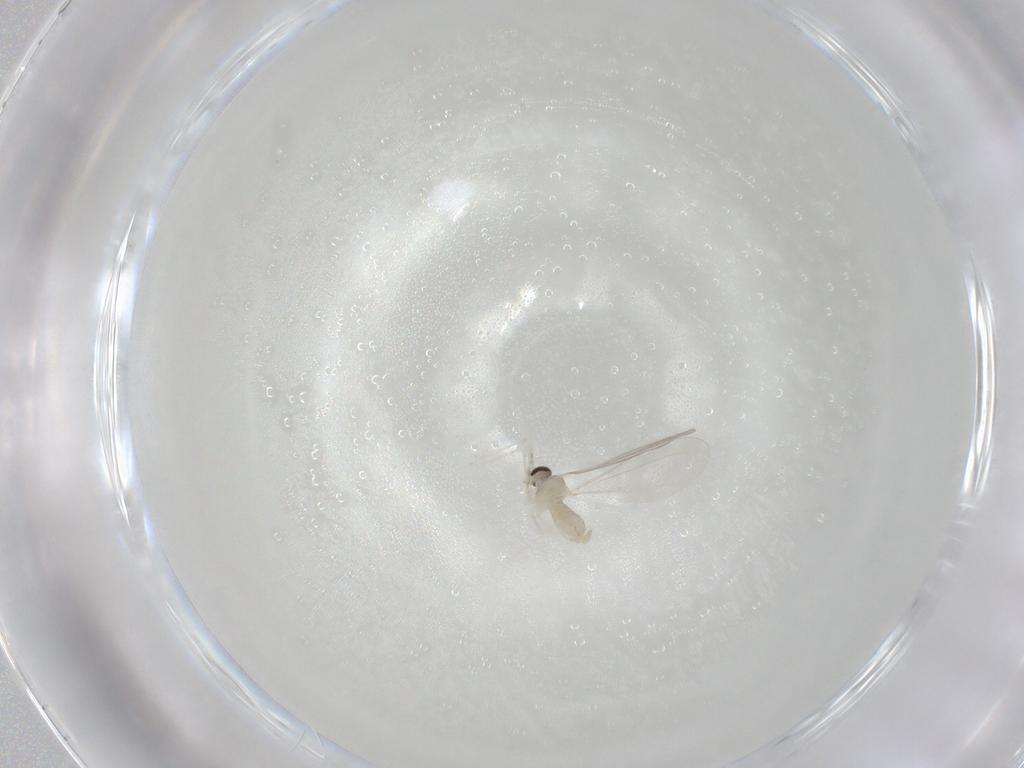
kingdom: Animalia
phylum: Arthropoda
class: Insecta
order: Diptera
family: Cecidomyiidae
